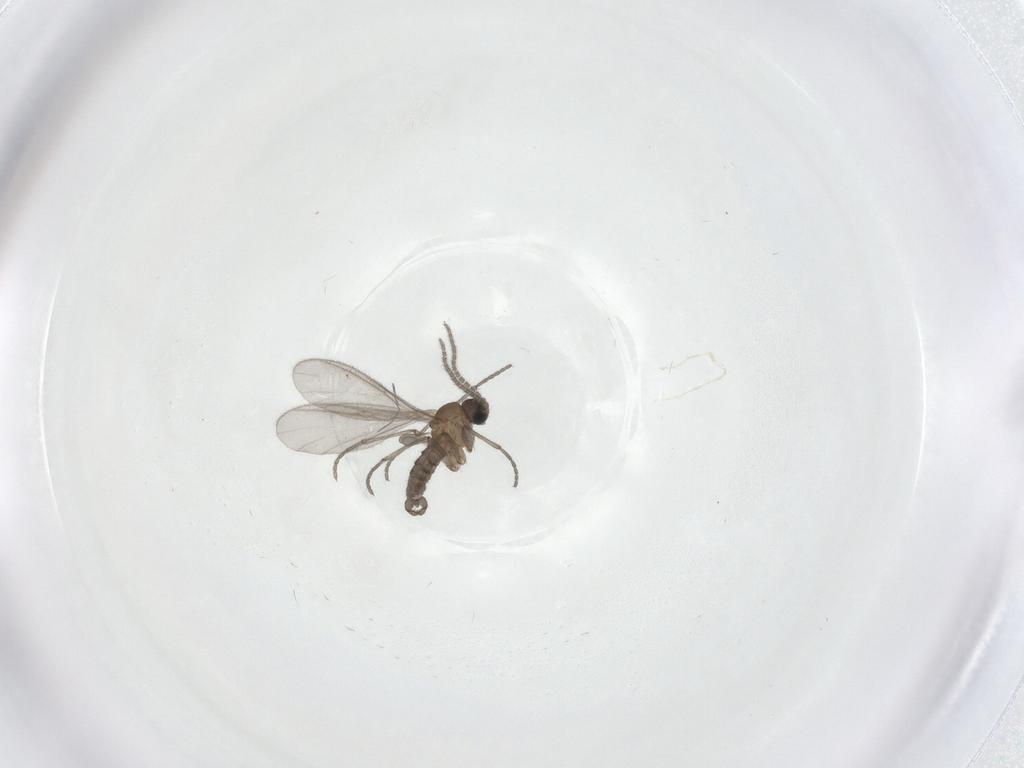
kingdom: Animalia
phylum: Arthropoda
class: Insecta
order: Diptera
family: Sciaridae
